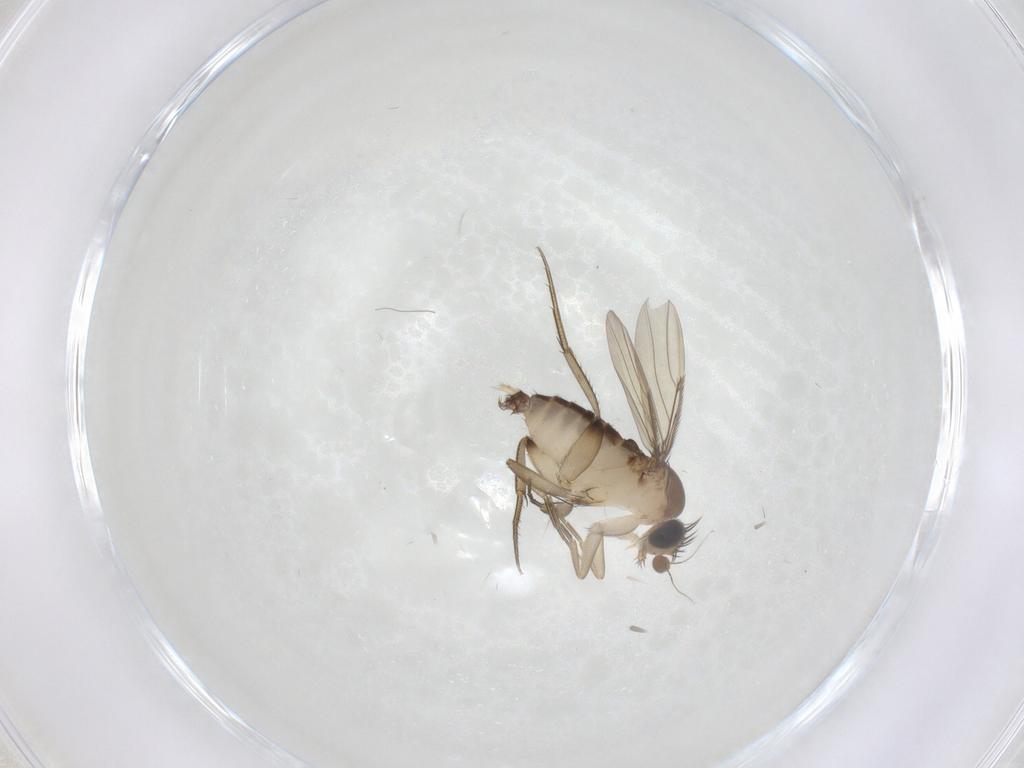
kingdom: Animalia
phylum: Arthropoda
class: Insecta
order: Diptera
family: Phoridae
